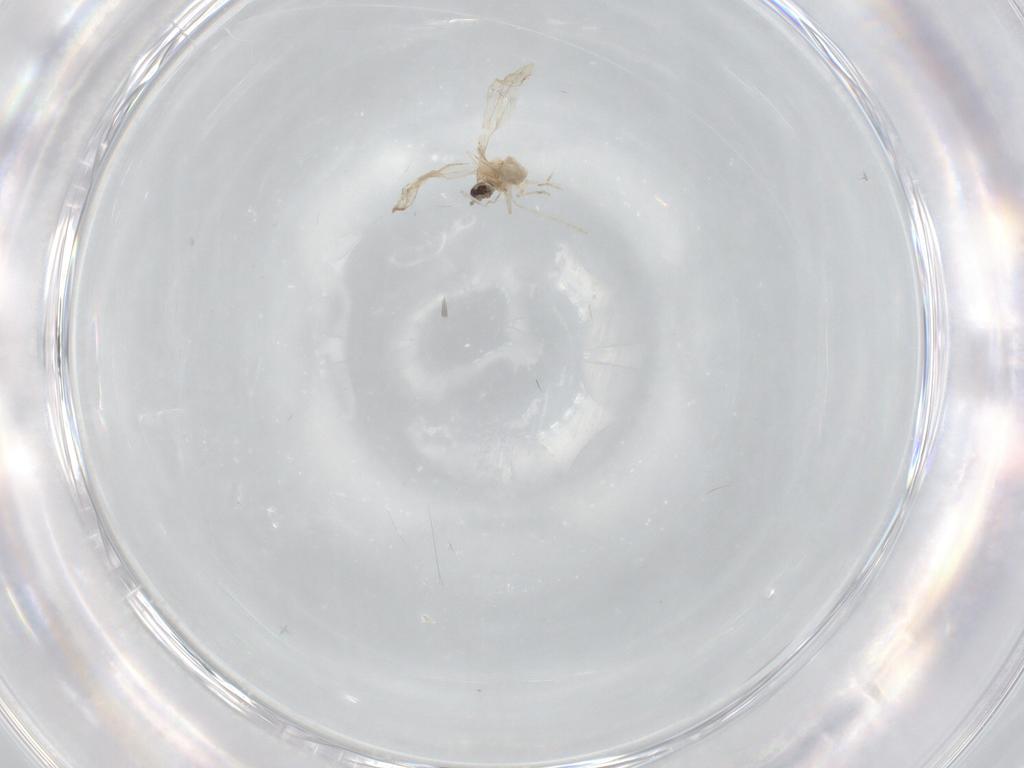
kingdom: Animalia
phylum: Arthropoda
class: Insecta
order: Diptera
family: Cecidomyiidae
